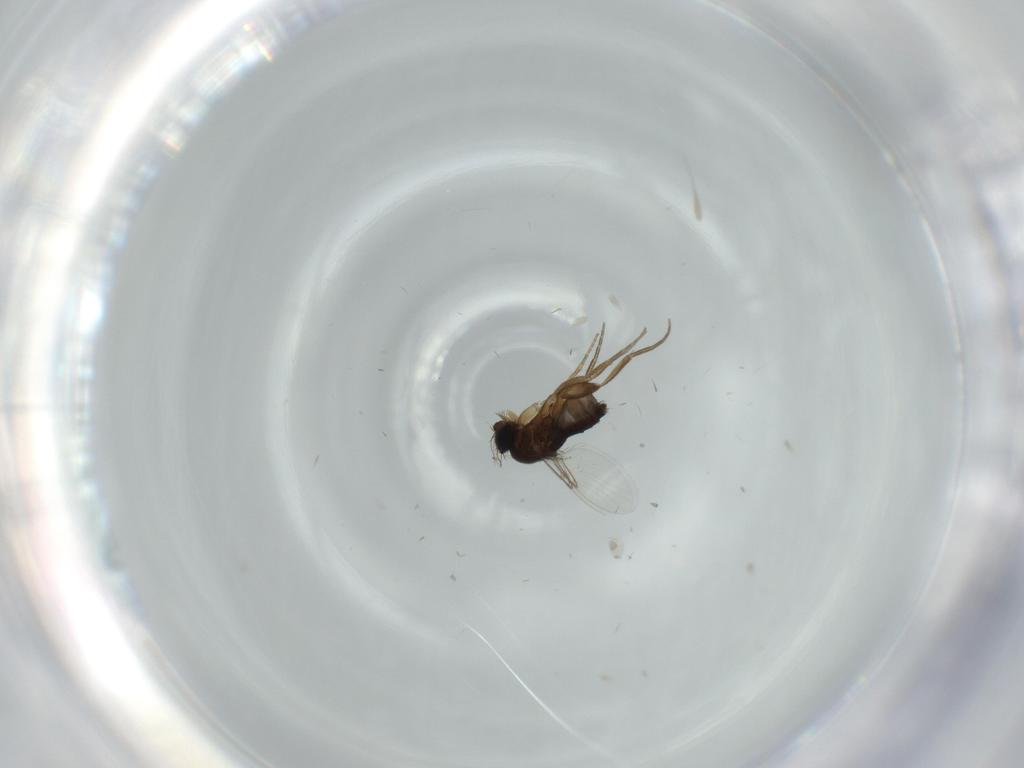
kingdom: Animalia
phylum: Arthropoda
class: Insecta
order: Diptera
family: Phoridae
